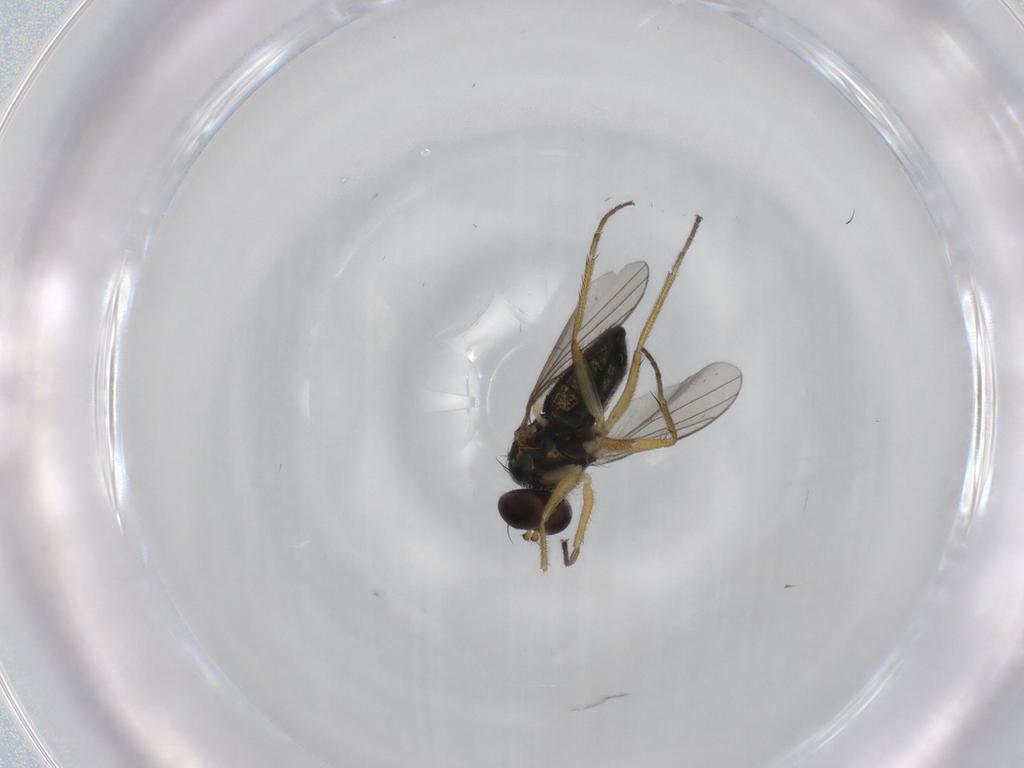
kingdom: Animalia
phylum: Arthropoda
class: Insecta
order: Diptera
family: Dolichopodidae
